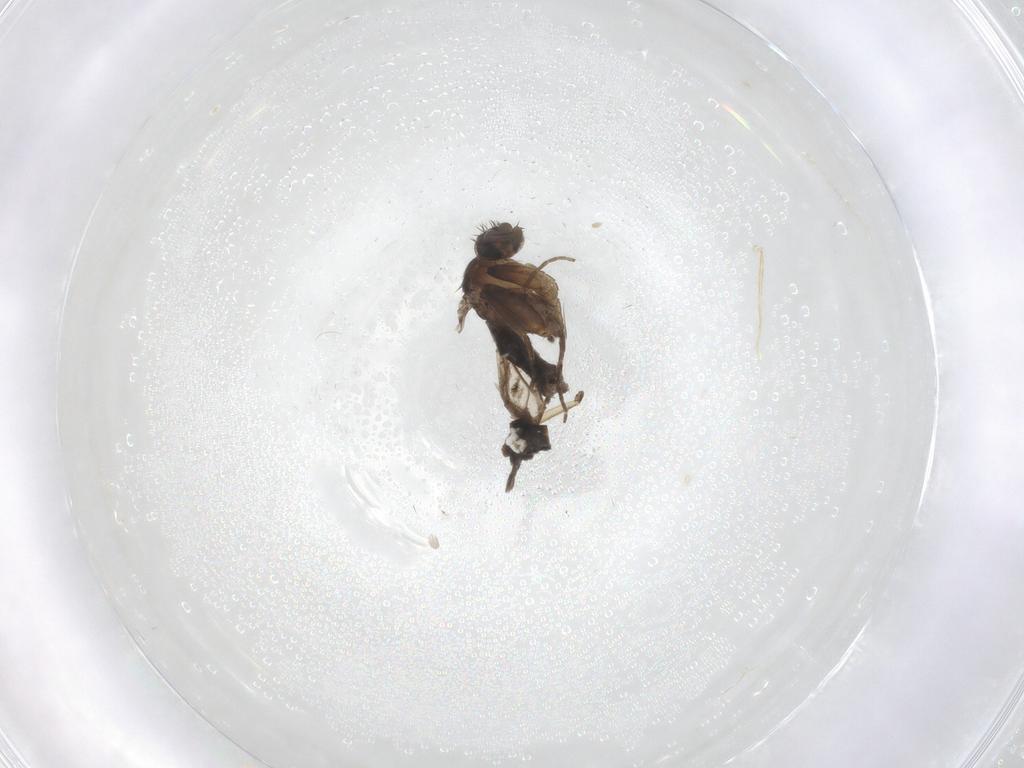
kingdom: Animalia
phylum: Arthropoda
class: Insecta
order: Diptera
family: Phoridae
